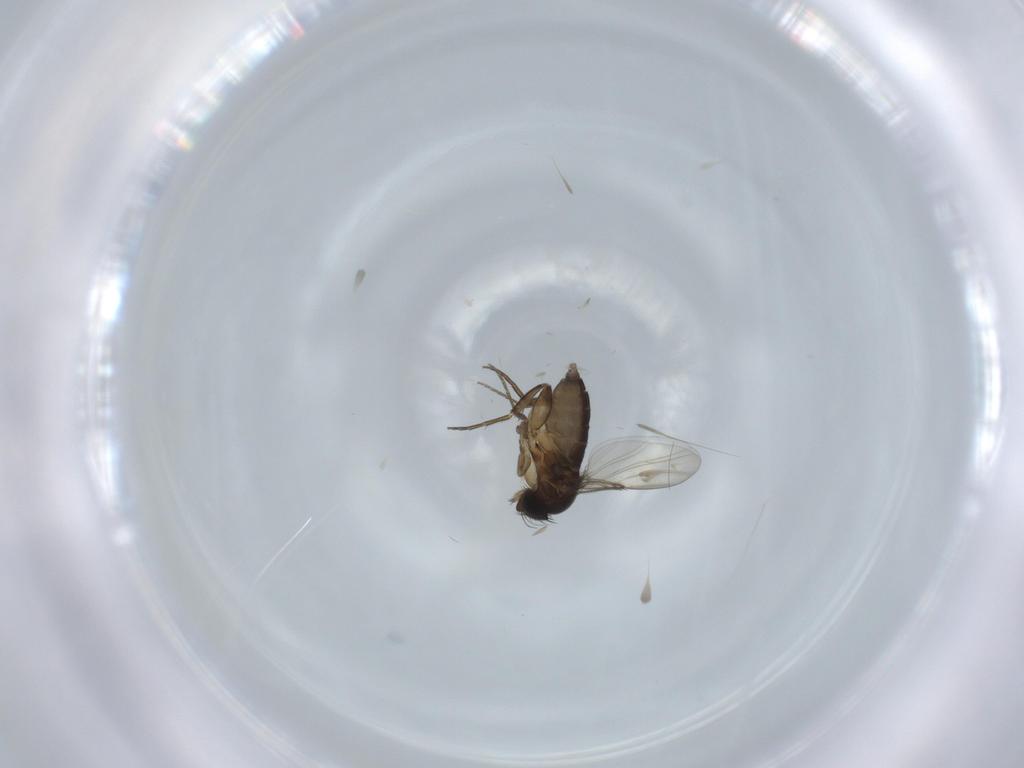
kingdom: Animalia
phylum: Arthropoda
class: Insecta
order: Diptera
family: Phoridae
